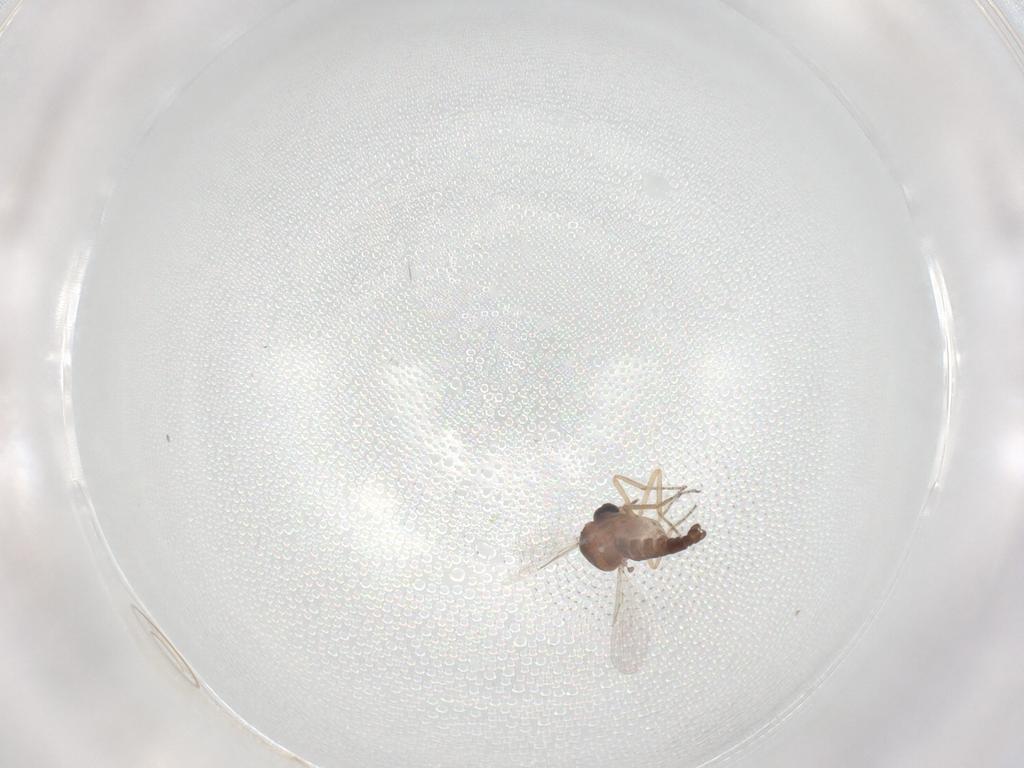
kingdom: Animalia
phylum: Arthropoda
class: Insecta
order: Diptera
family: Ceratopogonidae
